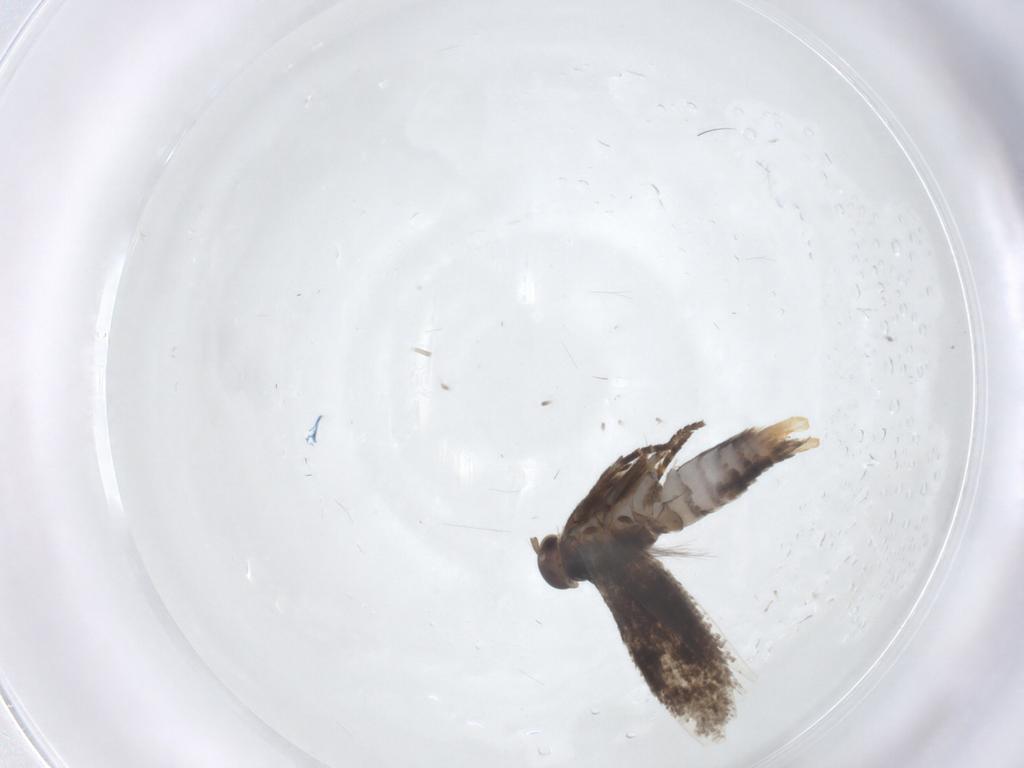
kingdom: Animalia
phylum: Arthropoda
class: Insecta
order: Lepidoptera
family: Elachistidae
